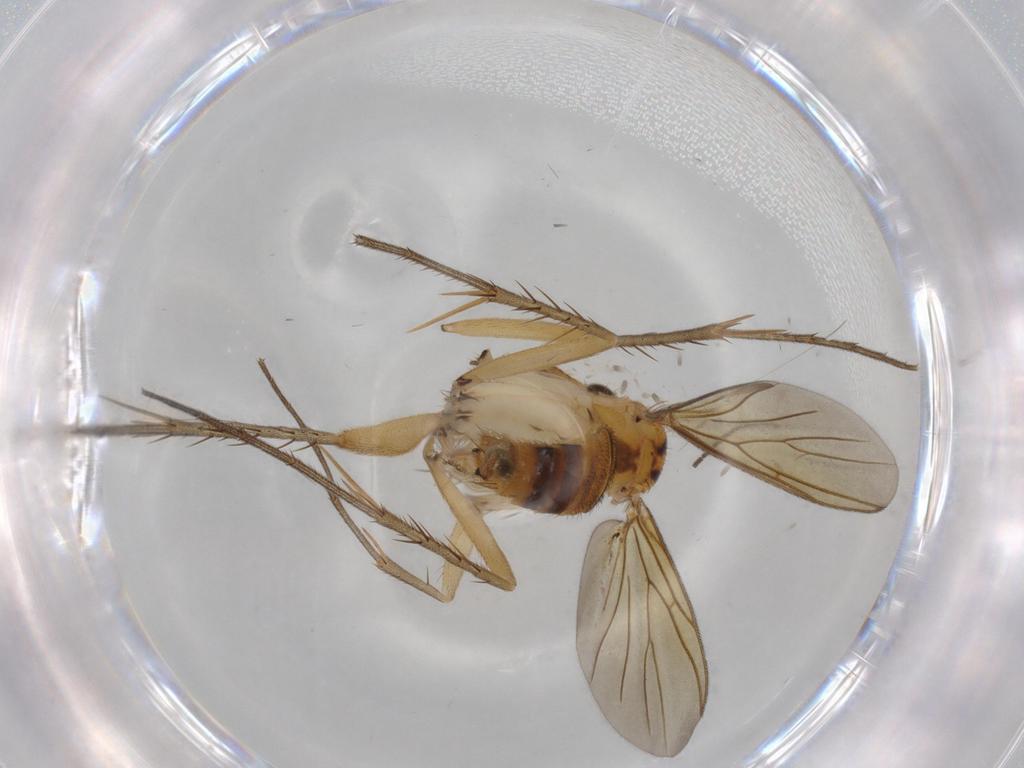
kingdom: Animalia
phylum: Arthropoda
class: Insecta
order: Diptera
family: Mycetophilidae
